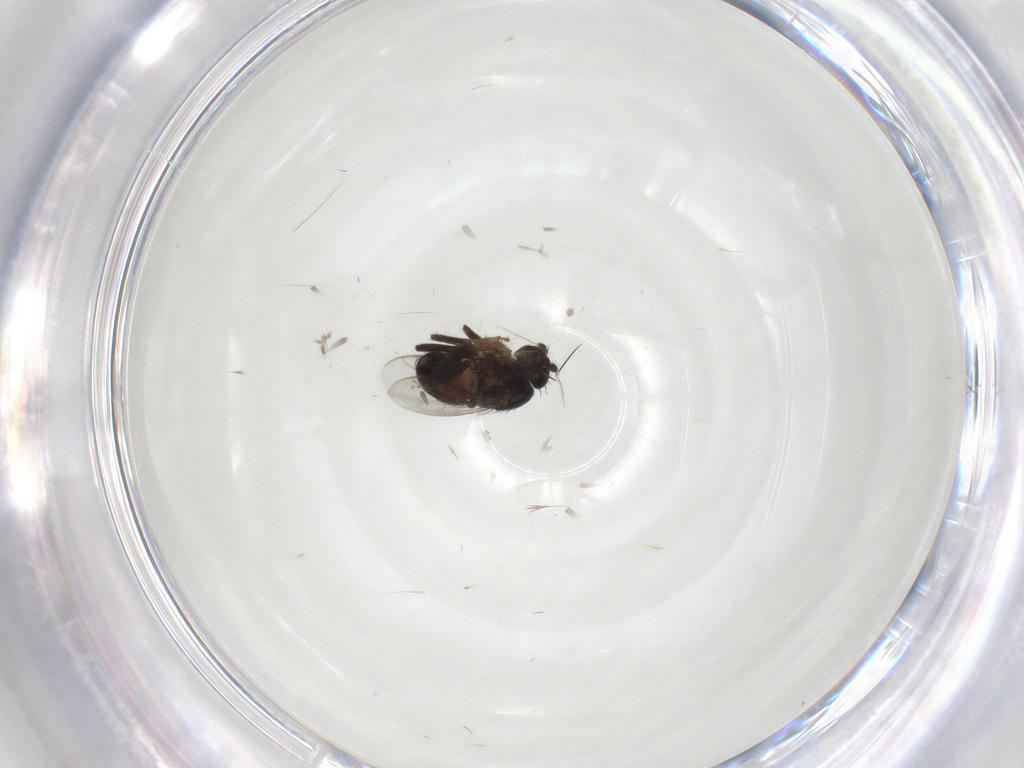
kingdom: Animalia
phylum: Arthropoda
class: Insecta
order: Diptera
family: Sphaeroceridae
